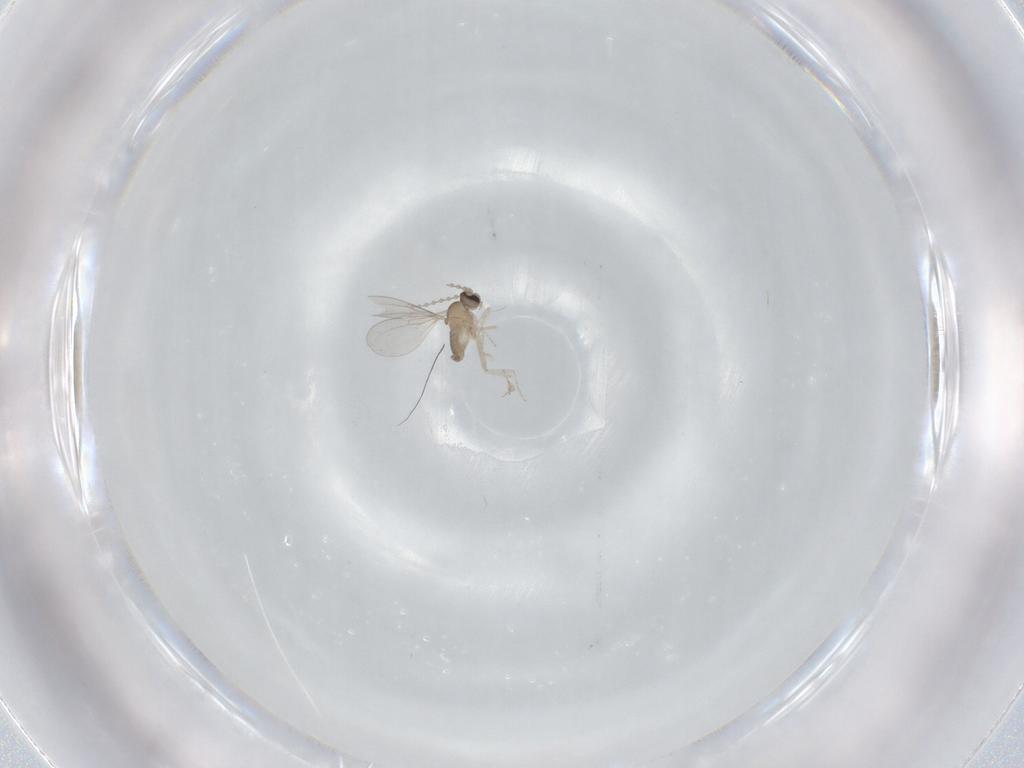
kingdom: Animalia
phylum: Arthropoda
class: Insecta
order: Diptera
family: Cecidomyiidae
